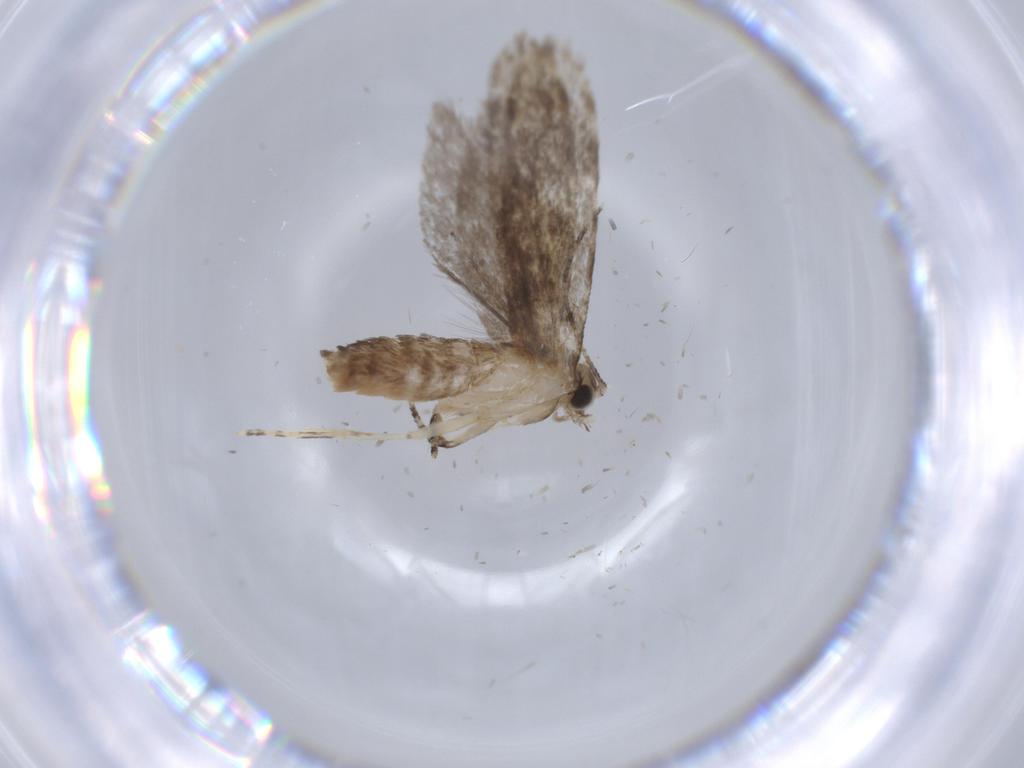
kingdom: Animalia
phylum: Arthropoda
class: Insecta
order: Lepidoptera
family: Tineidae
